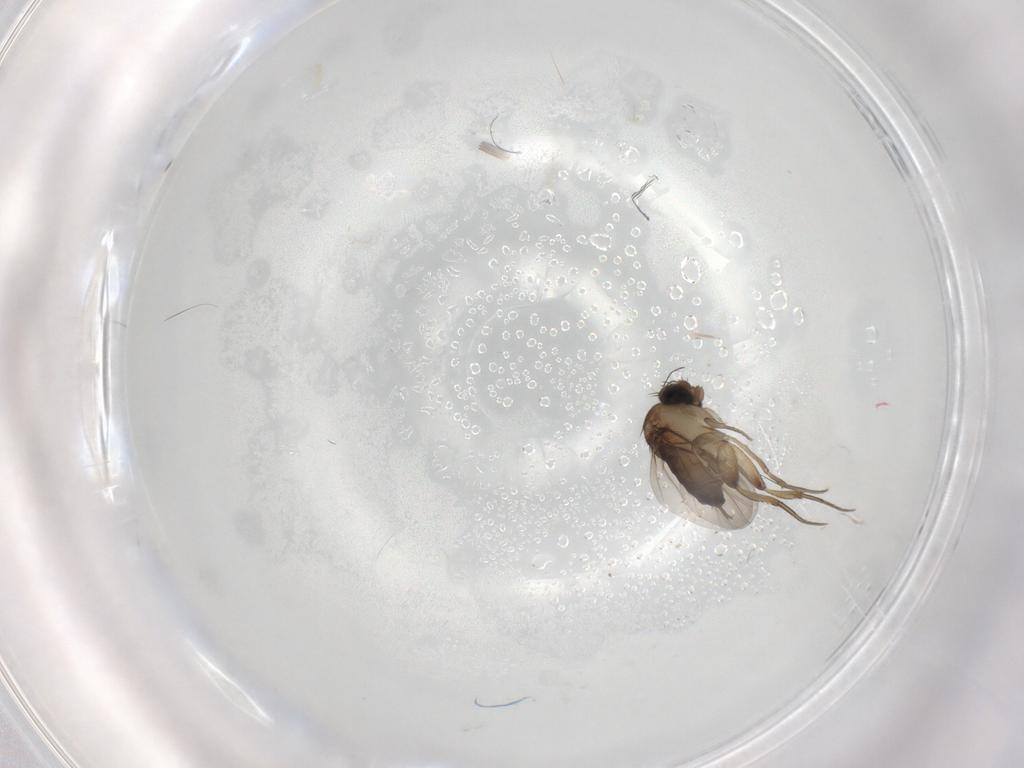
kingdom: Animalia
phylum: Arthropoda
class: Insecta
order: Diptera
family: Phoridae
